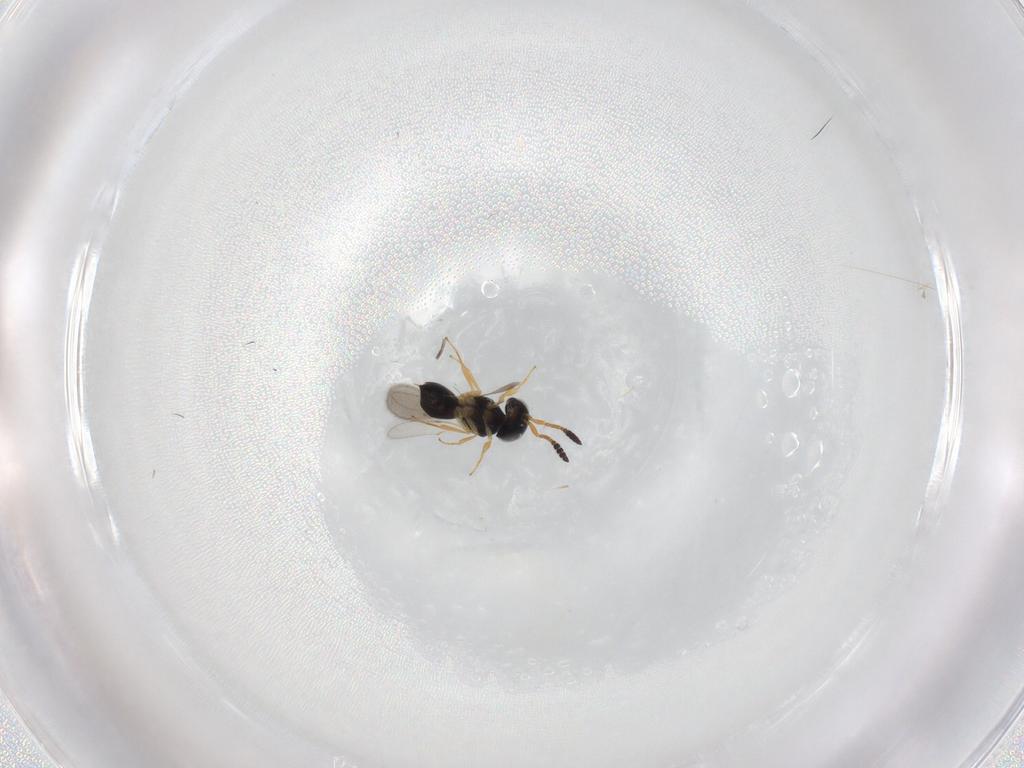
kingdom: Animalia
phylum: Arthropoda
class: Insecta
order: Hymenoptera
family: Scelionidae
